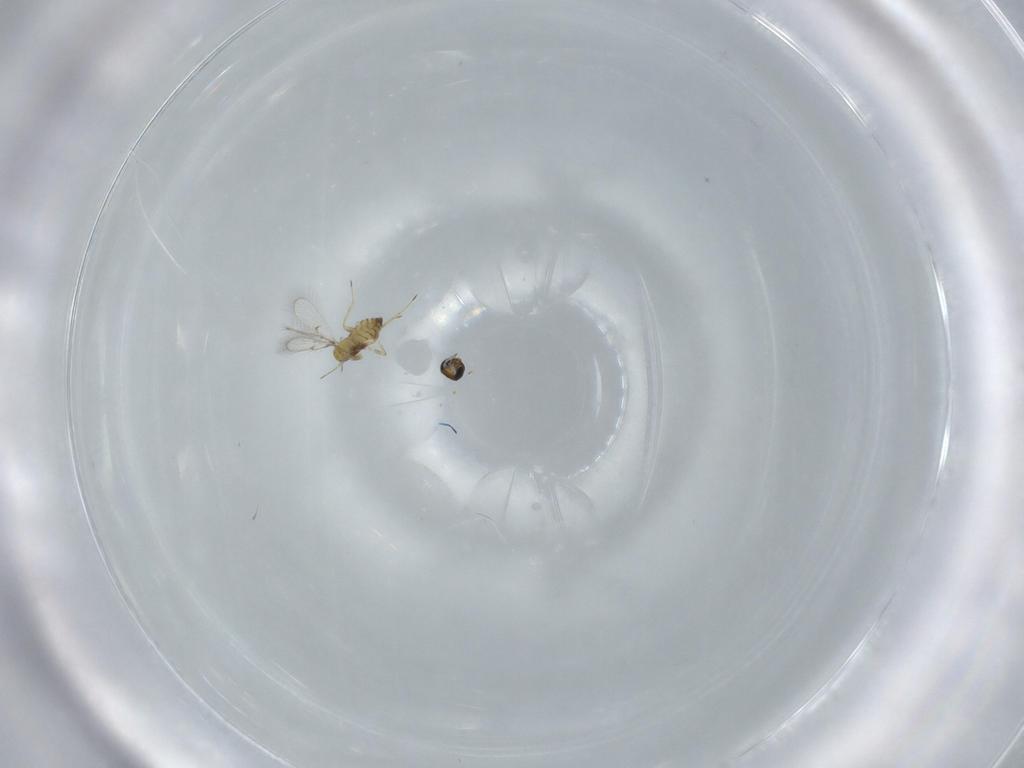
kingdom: Animalia
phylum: Arthropoda
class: Insecta
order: Hymenoptera
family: Trichogrammatidae
